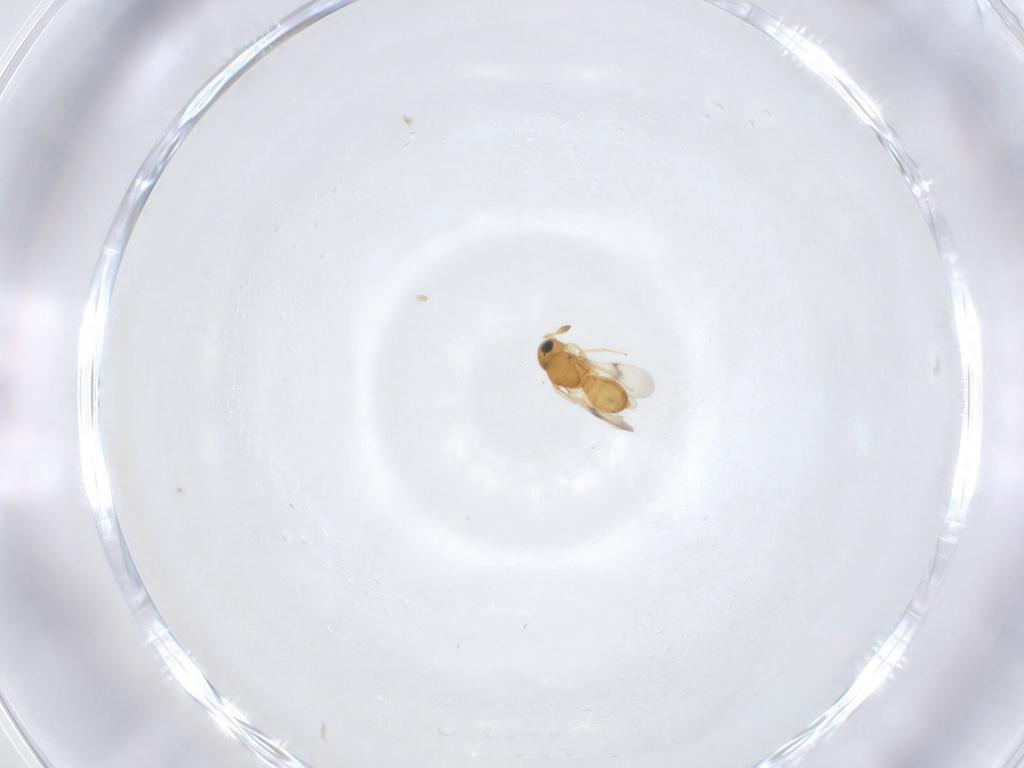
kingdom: Animalia
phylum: Arthropoda
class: Insecta
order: Hymenoptera
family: Scelionidae
